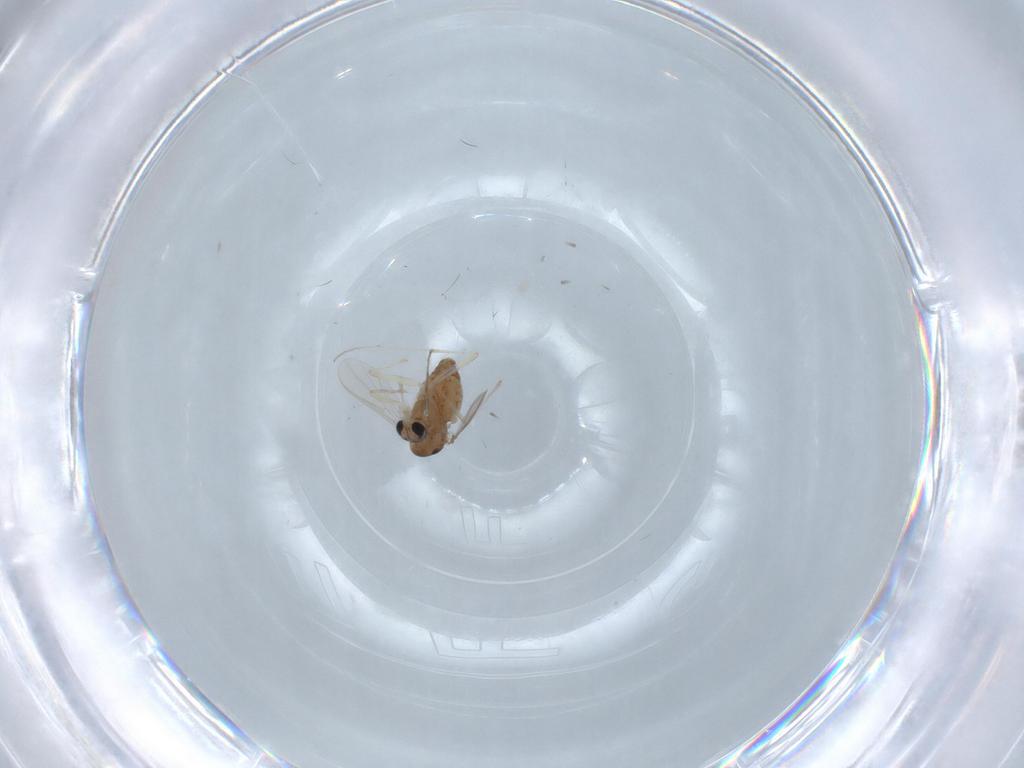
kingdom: Animalia
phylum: Arthropoda
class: Insecta
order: Diptera
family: Chironomidae
